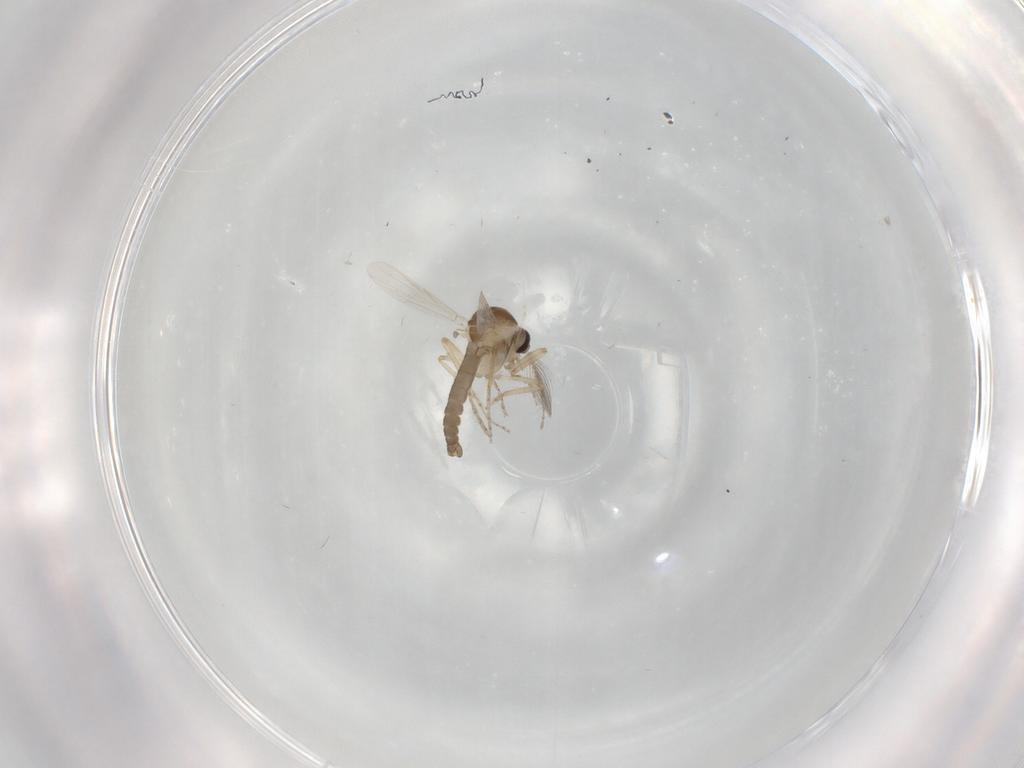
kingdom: Animalia
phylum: Arthropoda
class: Insecta
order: Diptera
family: Ceratopogonidae
